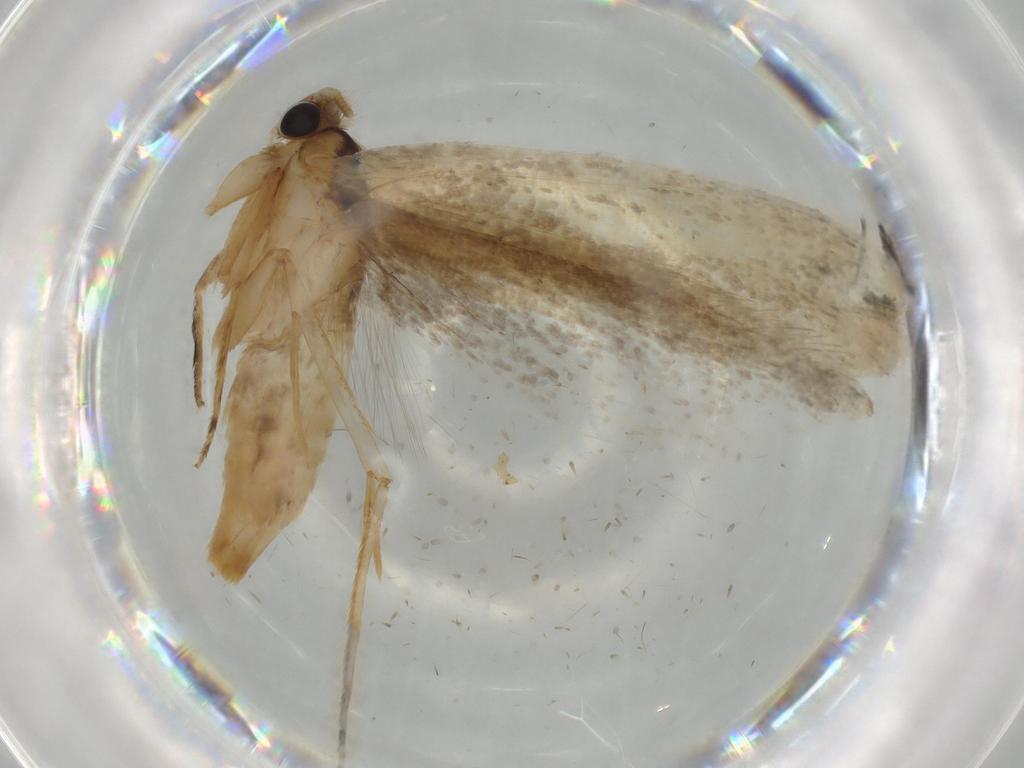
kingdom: Animalia
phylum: Arthropoda
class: Insecta
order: Lepidoptera
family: Tineidae
